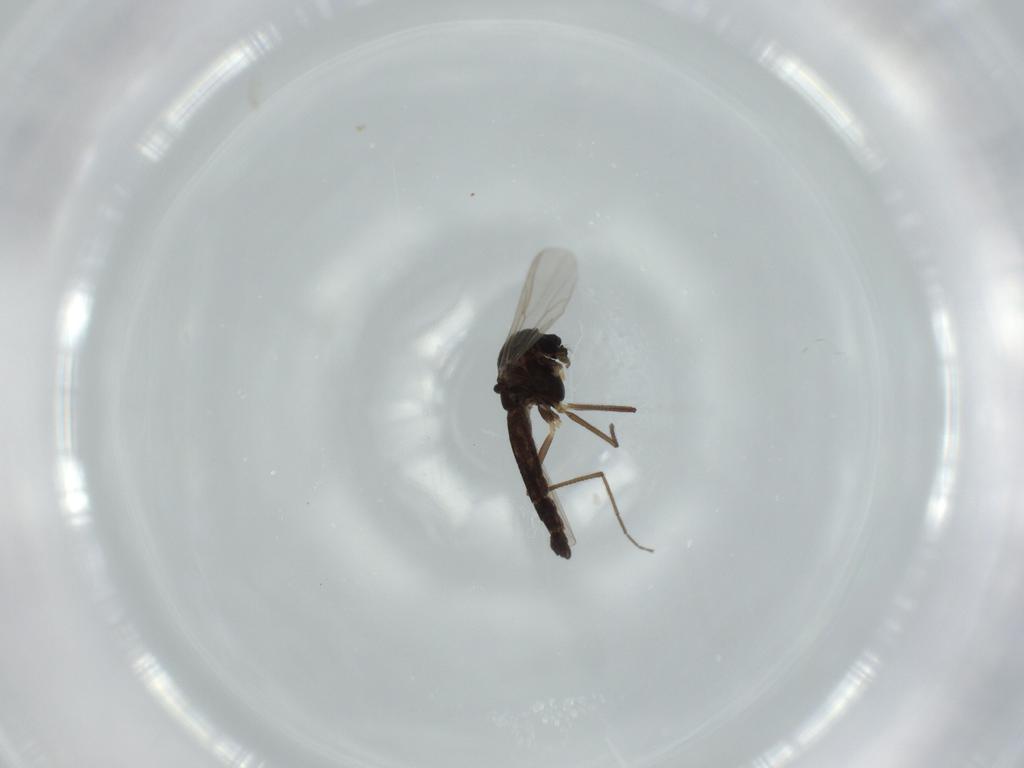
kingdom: Animalia
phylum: Arthropoda
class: Insecta
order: Diptera
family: Chironomidae
